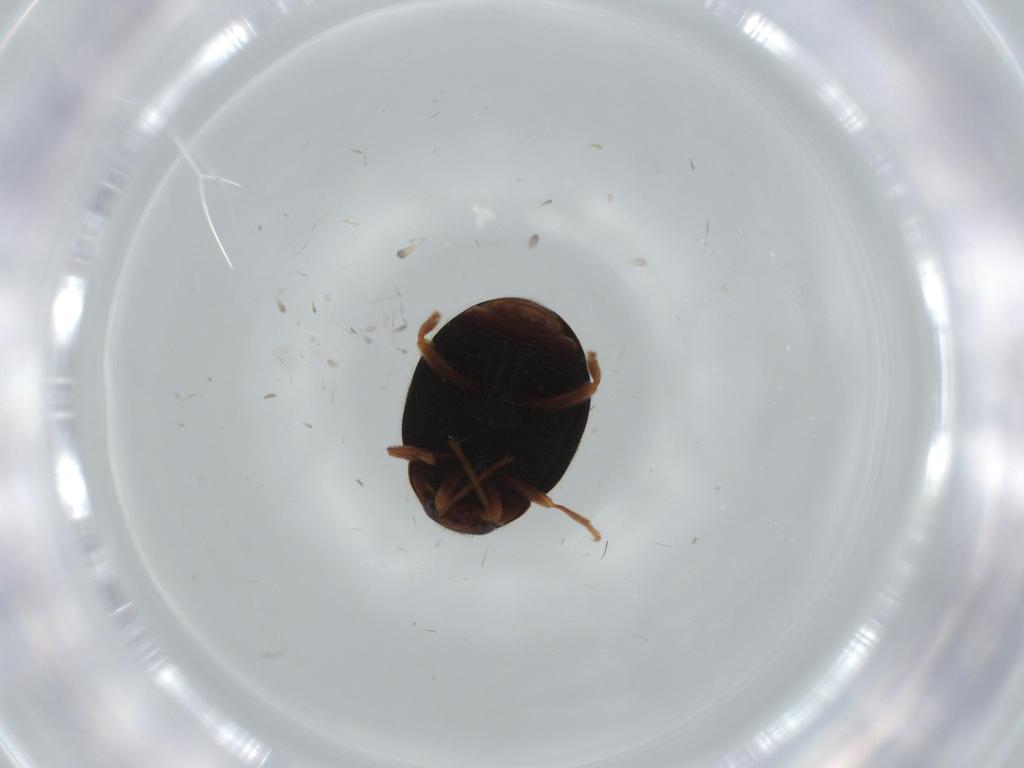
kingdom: Animalia
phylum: Arthropoda
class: Insecta
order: Coleoptera
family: Coccinellidae
